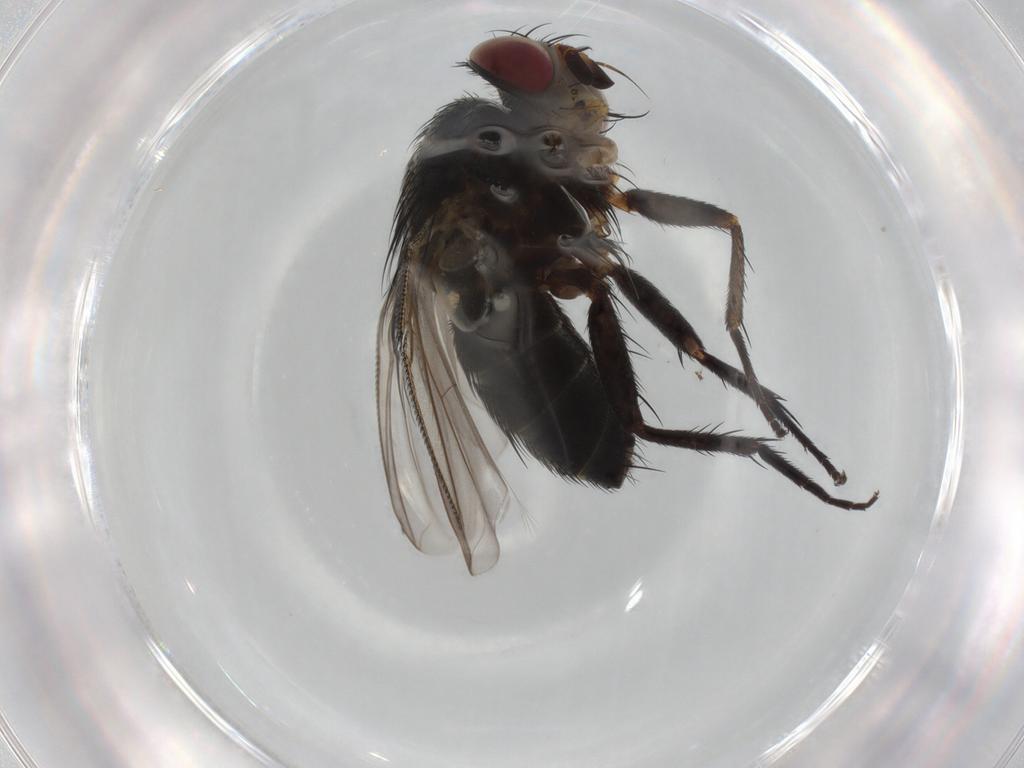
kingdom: Animalia
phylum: Arthropoda
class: Insecta
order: Diptera
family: Tachinidae
